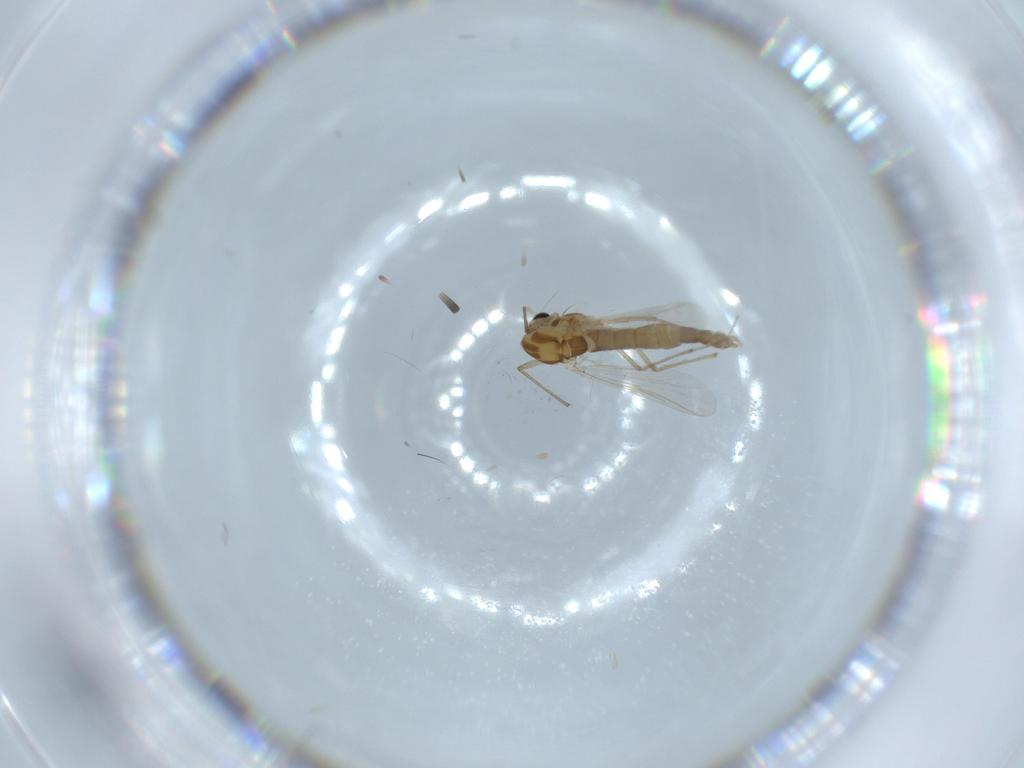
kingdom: Animalia
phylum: Arthropoda
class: Insecta
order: Diptera
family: Chironomidae
